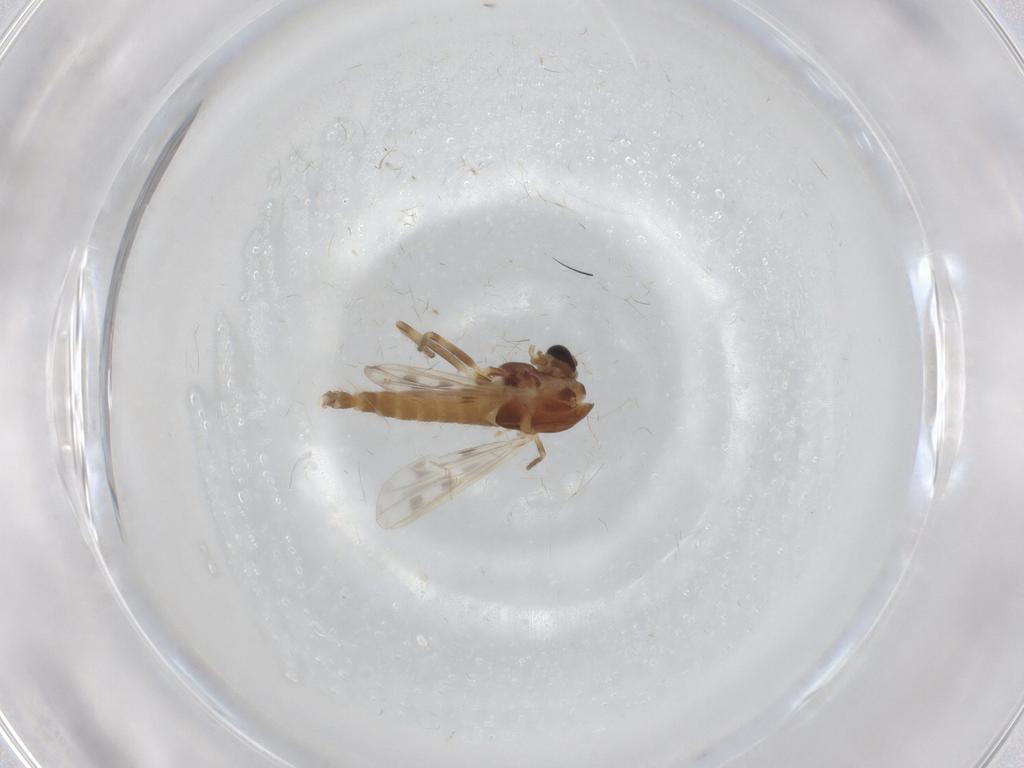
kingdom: Animalia
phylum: Arthropoda
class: Insecta
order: Diptera
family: Chironomidae
